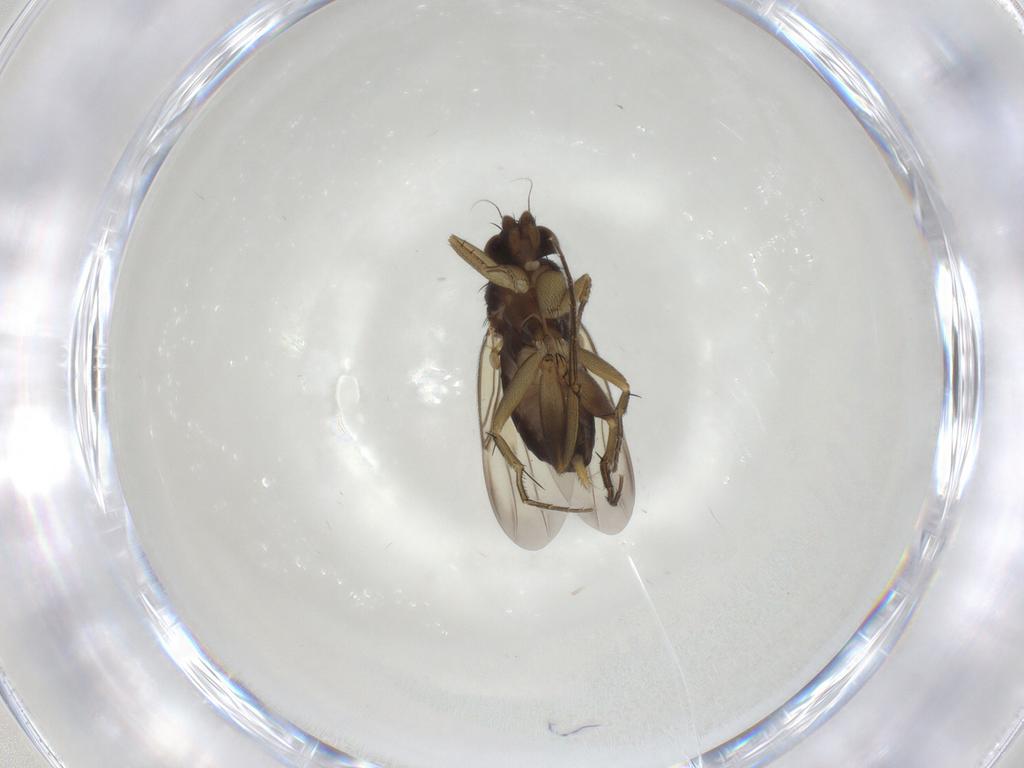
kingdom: Animalia
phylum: Arthropoda
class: Insecta
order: Diptera
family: Phoridae
